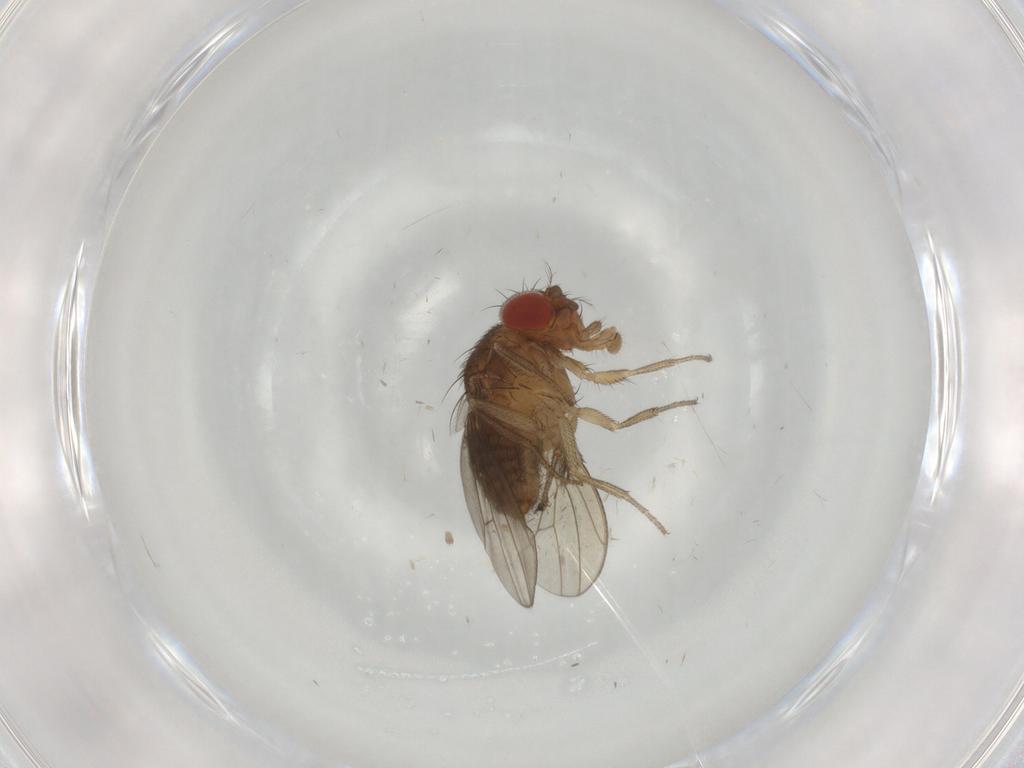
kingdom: Animalia
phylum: Arthropoda
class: Insecta
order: Diptera
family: Drosophilidae
